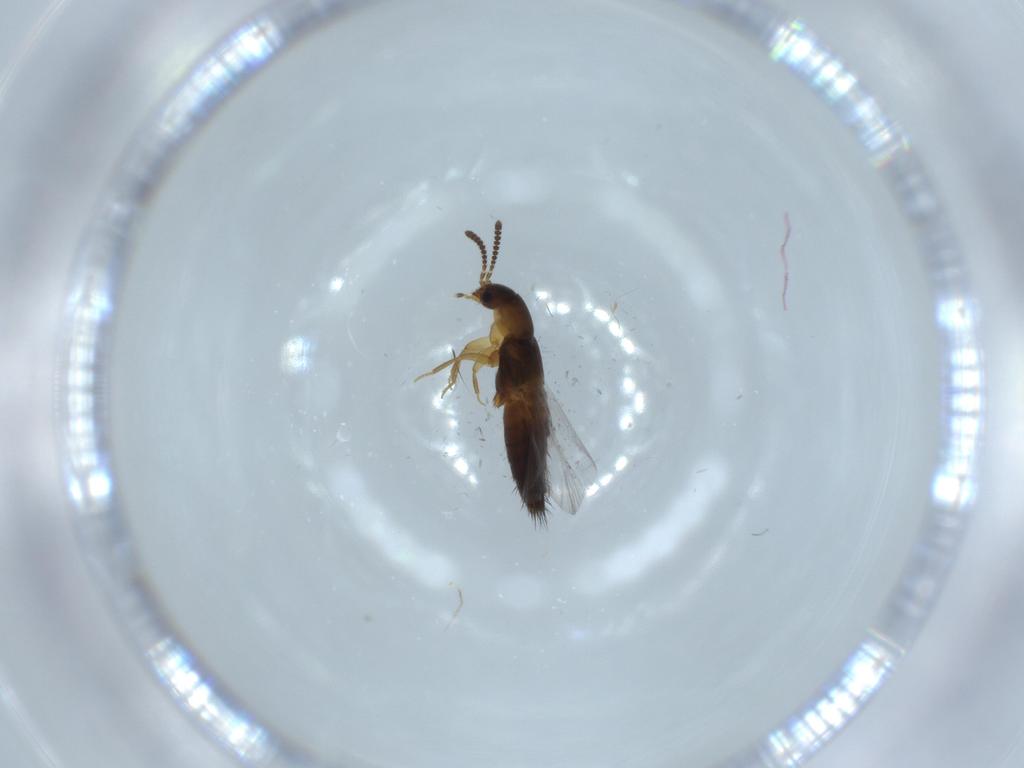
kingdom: Animalia
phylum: Arthropoda
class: Insecta
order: Coleoptera
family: Staphylinidae
